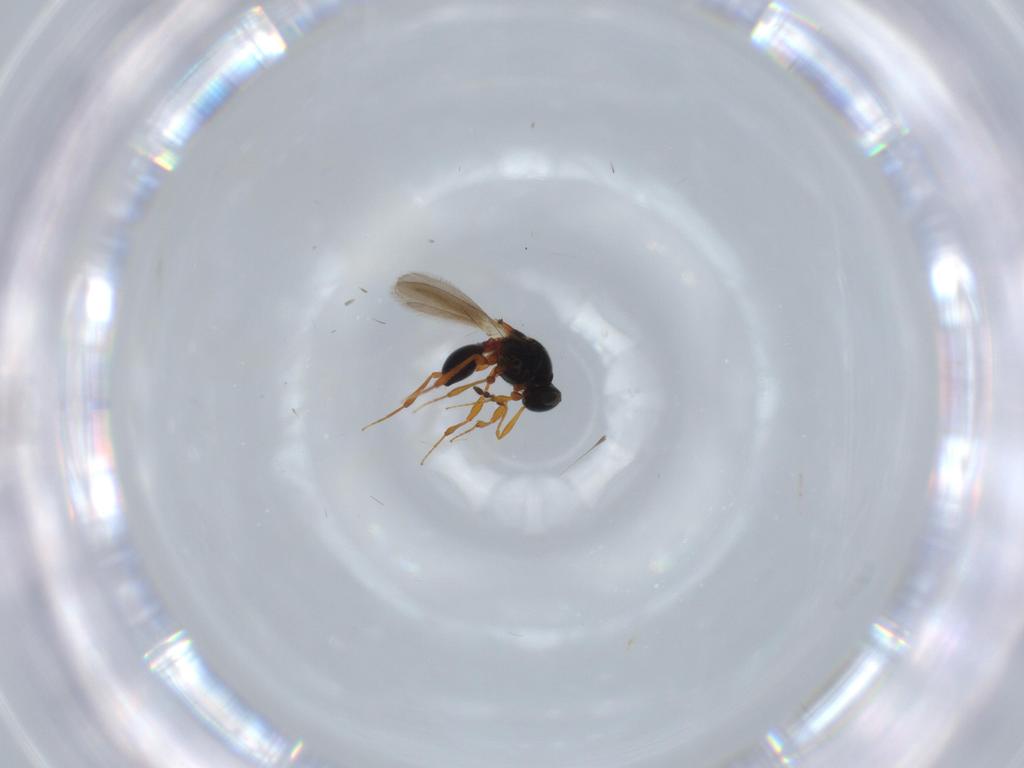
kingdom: Animalia
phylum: Arthropoda
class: Insecta
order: Hymenoptera
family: Platygastridae
